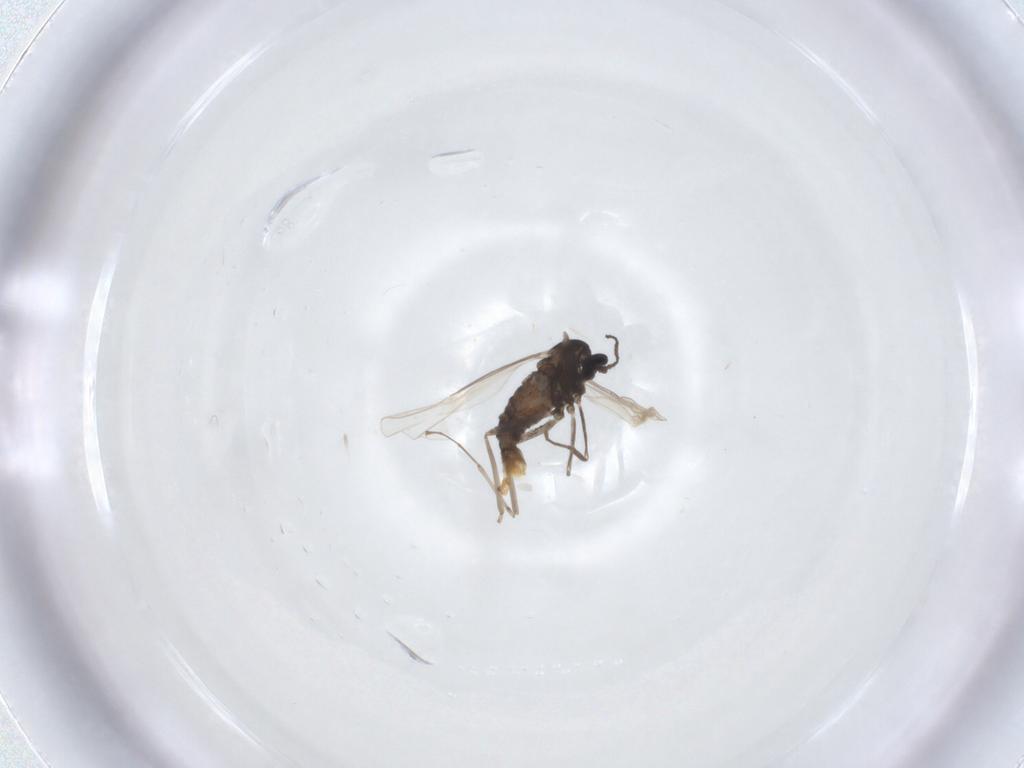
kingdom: Animalia
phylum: Arthropoda
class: Insecta
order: Diptera
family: Cecidomyiidae
